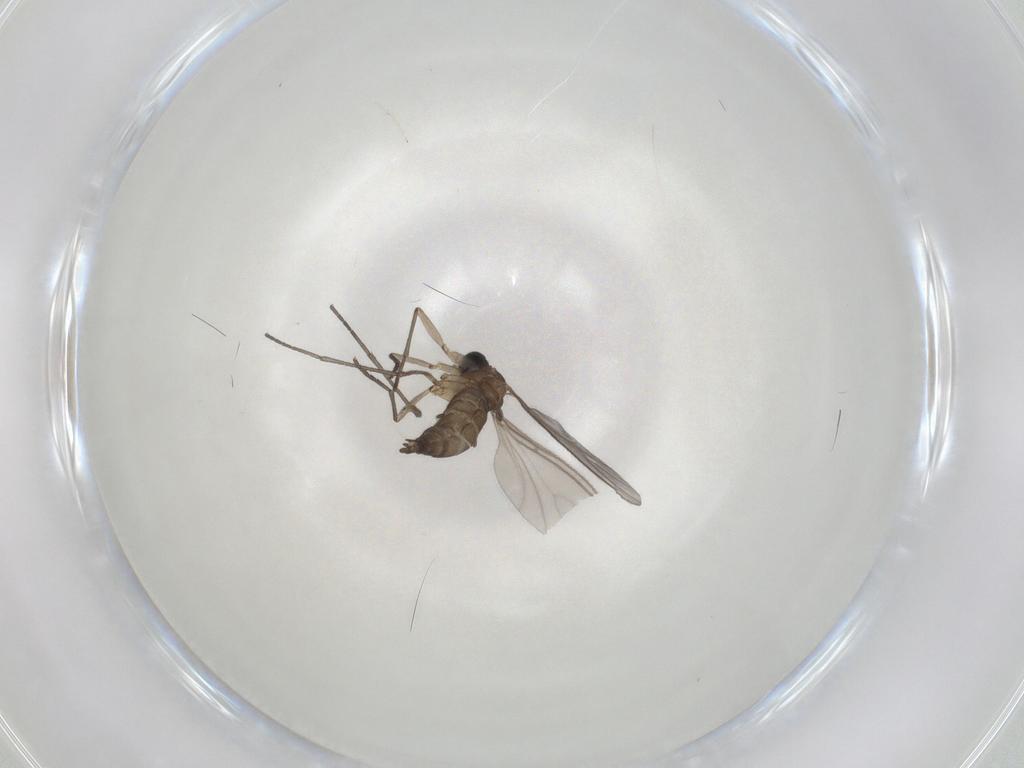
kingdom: Animalia
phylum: Arthropoda
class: Insecta
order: Diptera
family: Sciaridae
